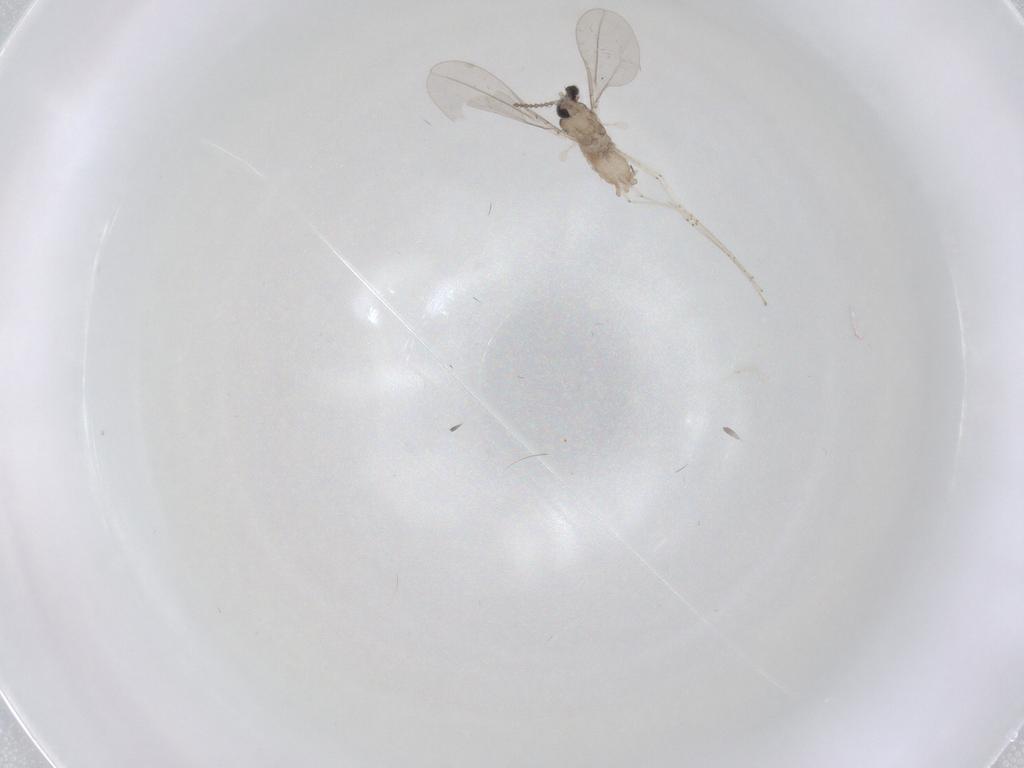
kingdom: Animalia
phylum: Arthropoda
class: Insecta
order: Diptera
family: Cecidomyiidae
